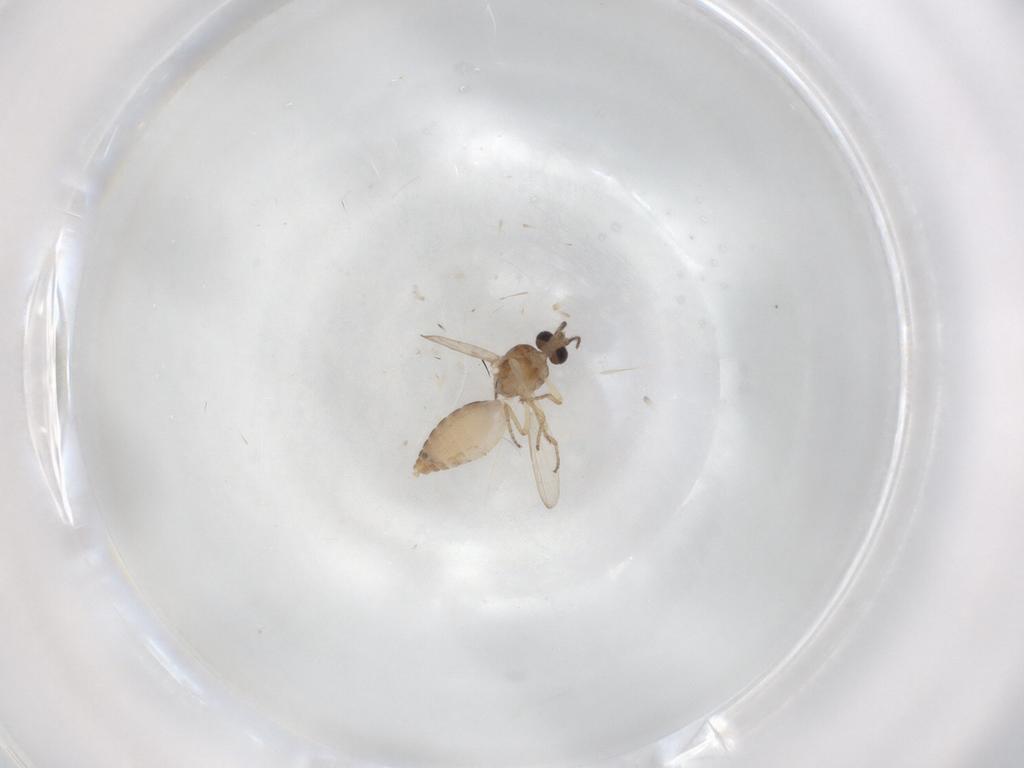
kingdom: Animalia
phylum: Arthropoda
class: Insecta
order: Diptera
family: Ceratopogonidae
